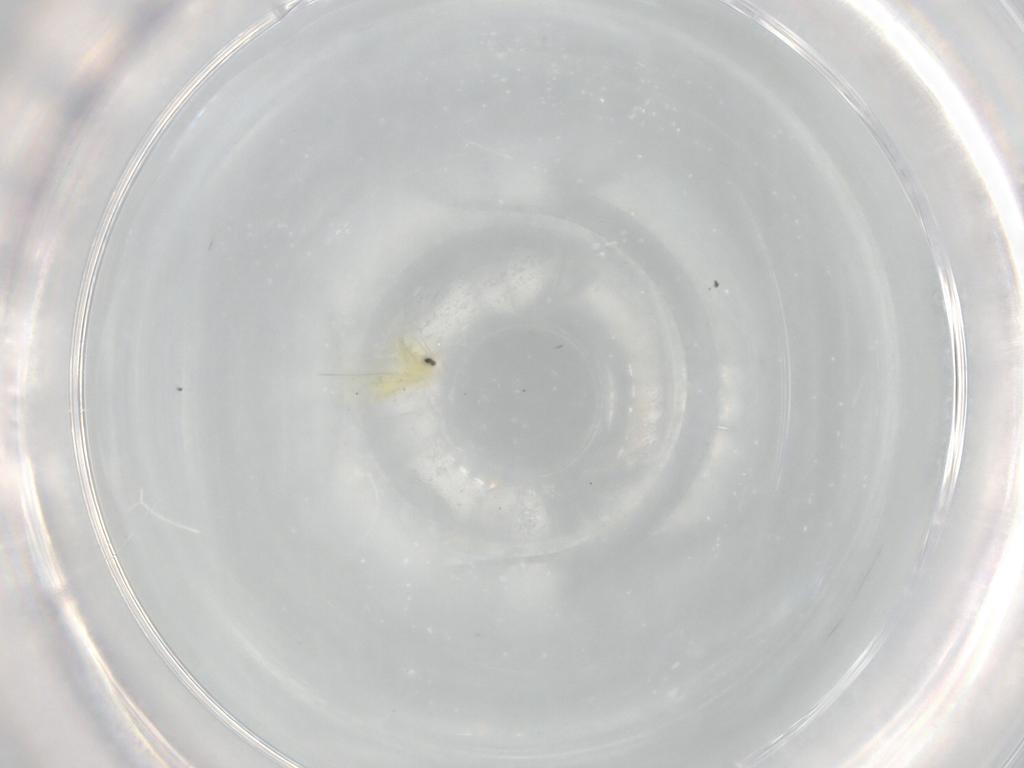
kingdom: Animalia
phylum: Arthropoda
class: Insecta
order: Hemiptera
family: Aleyrodidae
